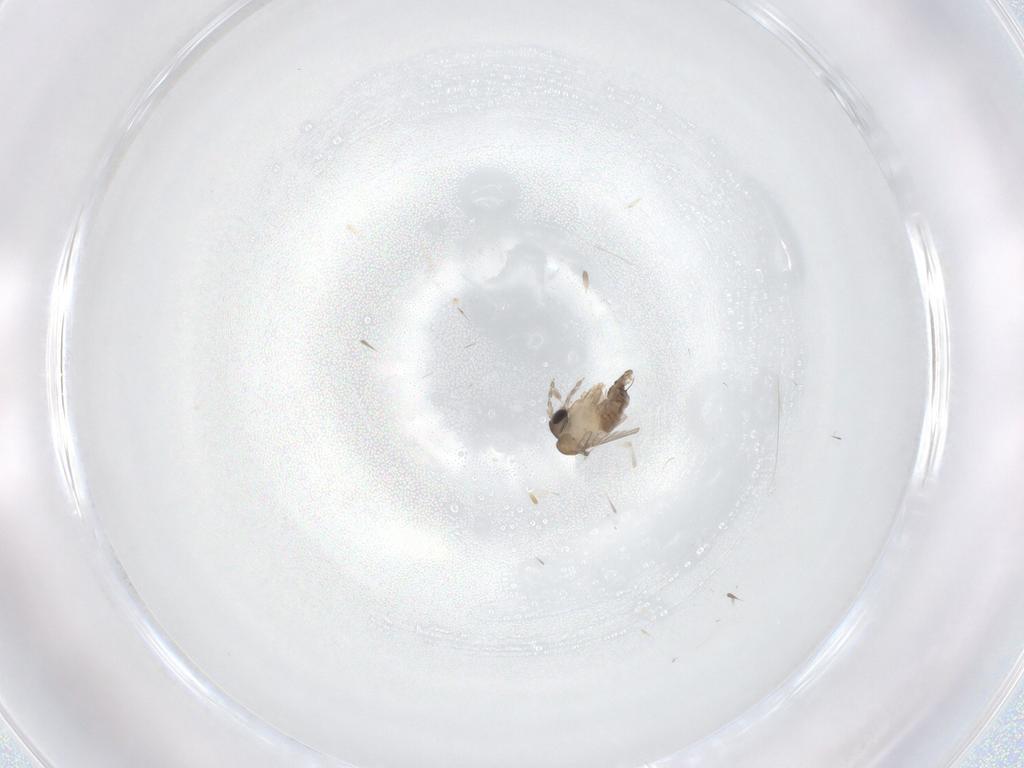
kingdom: Animalia
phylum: Arthropoda
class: Insecta
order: Diptera
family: Psychodidae
